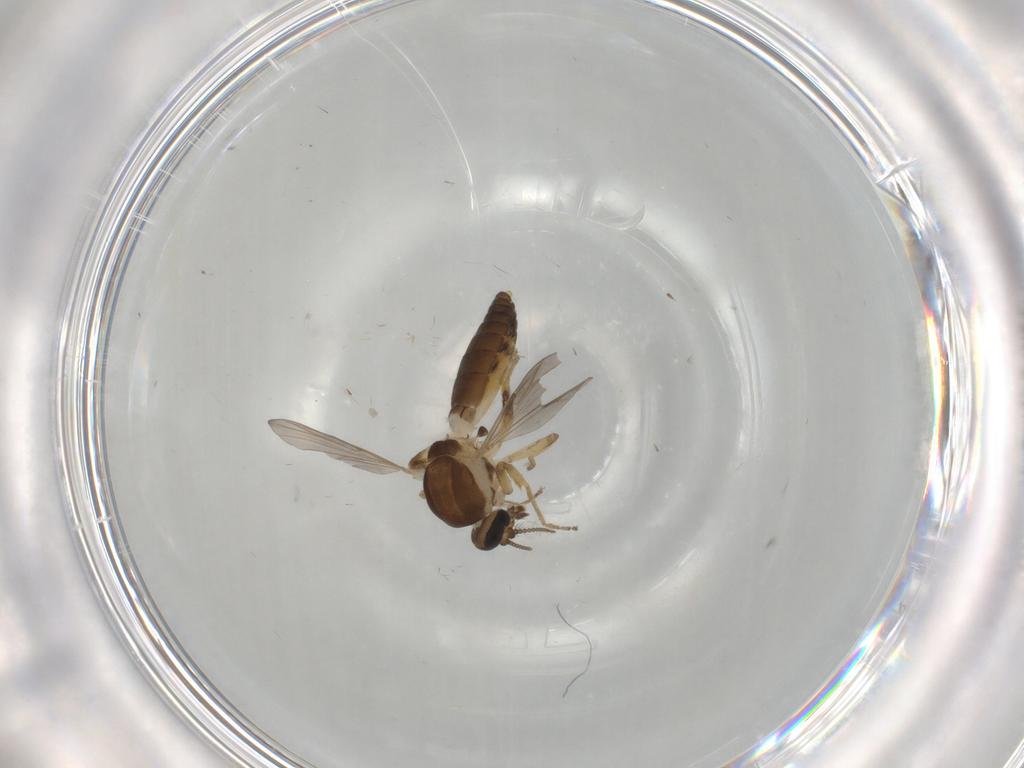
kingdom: Animalia
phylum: Arthropoda
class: Insecta
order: Diptera
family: Ceratopogonidae
